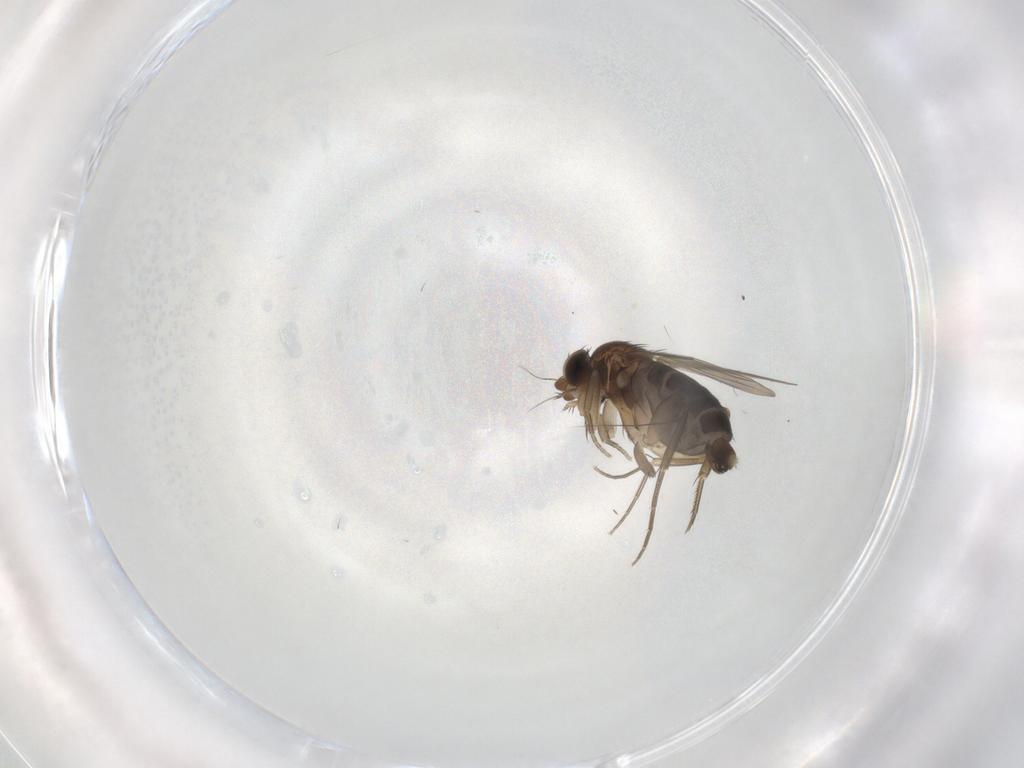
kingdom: Animalia
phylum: Arthropoda
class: Insecta
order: Diptera
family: Phoridae
